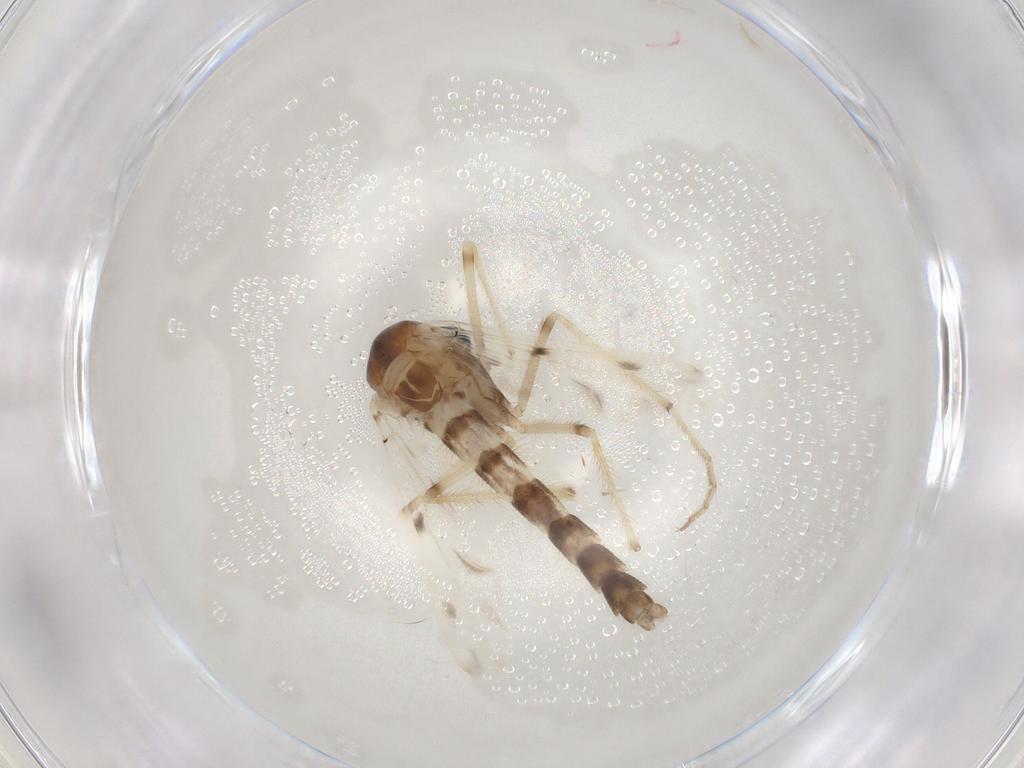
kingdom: Animalia
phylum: Arthropoda
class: Insecta
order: Diptera
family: Chironomidae
